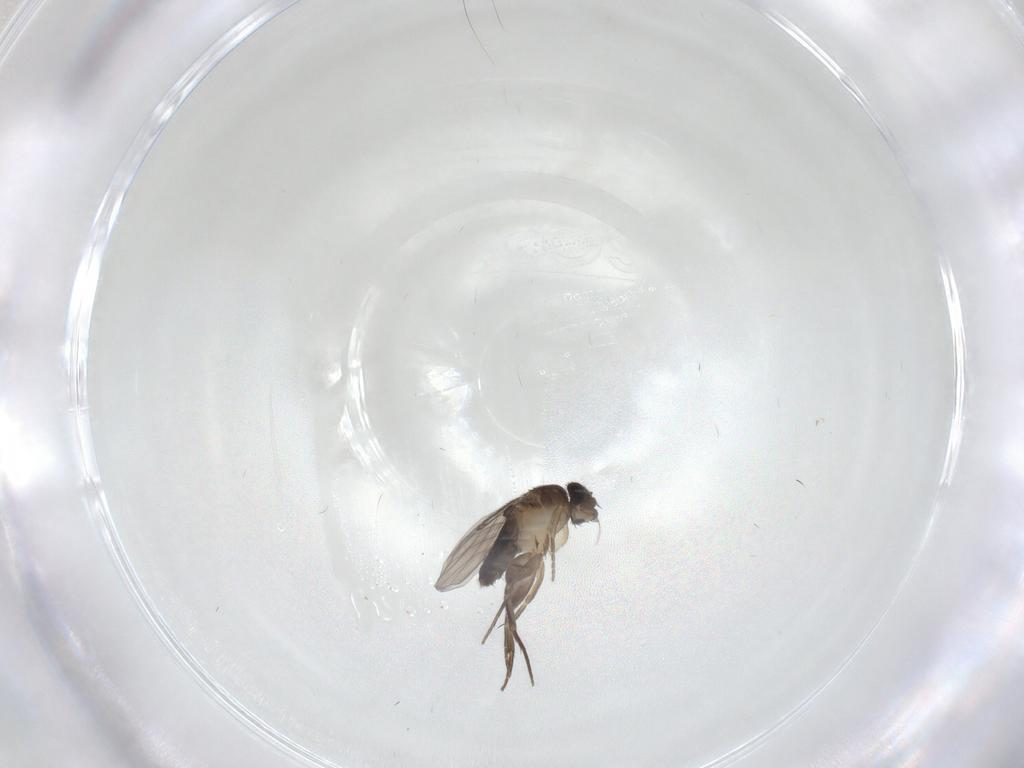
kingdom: Animalia
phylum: Arthropoda
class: Insecta
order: Diptera
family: Phoridae
